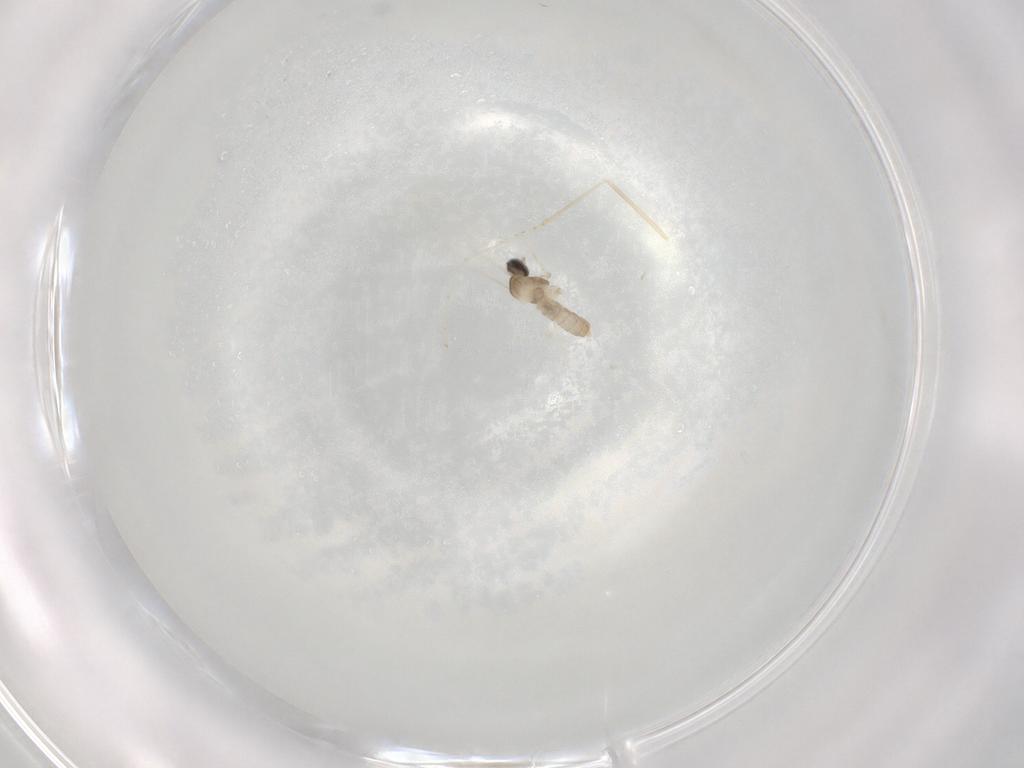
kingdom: Animalia
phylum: Arthropoda
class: Insecta
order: Diptera
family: Cecidomyiidae
